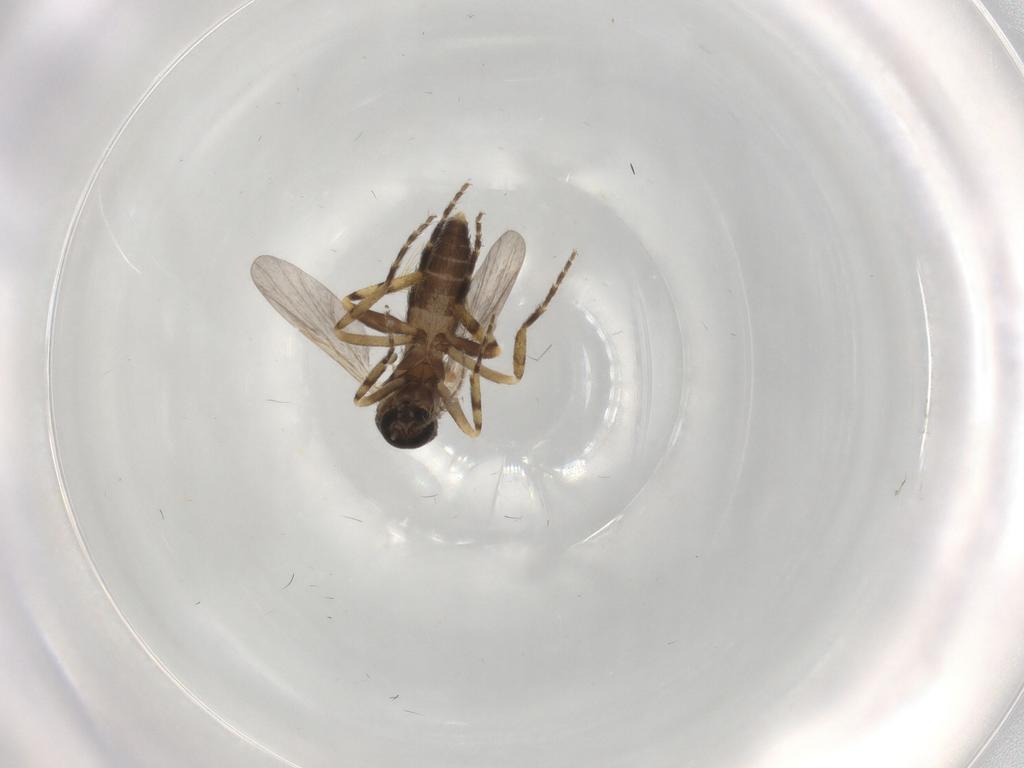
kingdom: Animalia
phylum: Arthropoda
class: Insecta
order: Diptera
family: Ceratopogonidae
